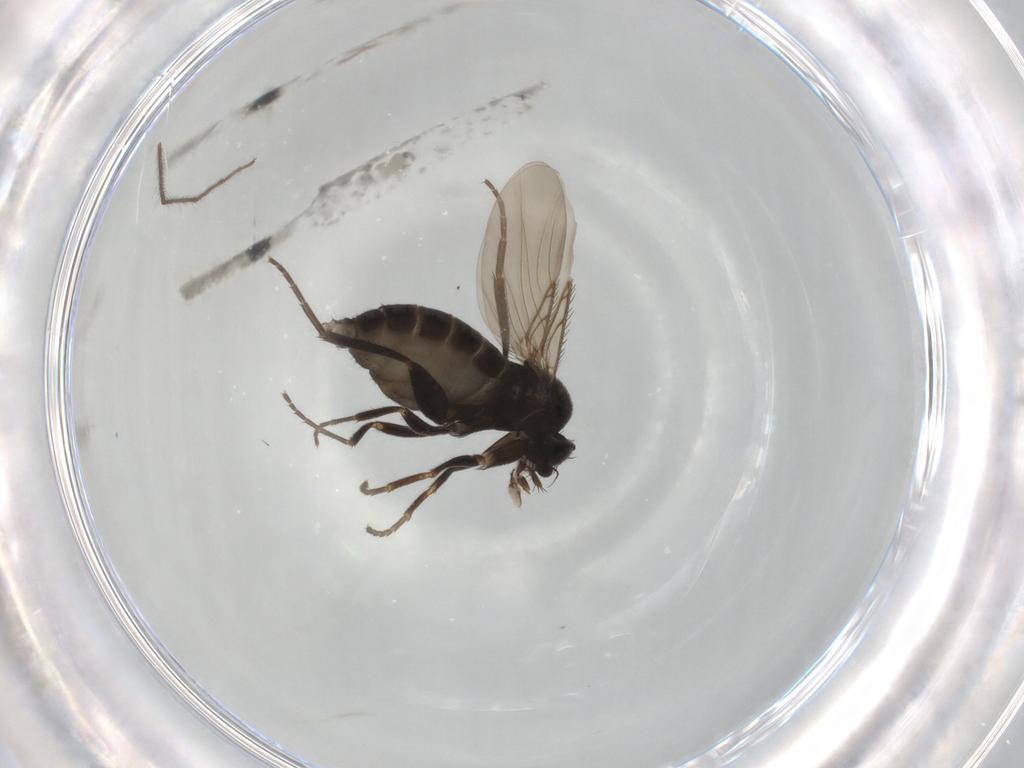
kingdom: Animalia
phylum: Arthropoda
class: Insecta
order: Diptera
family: Phoridae
